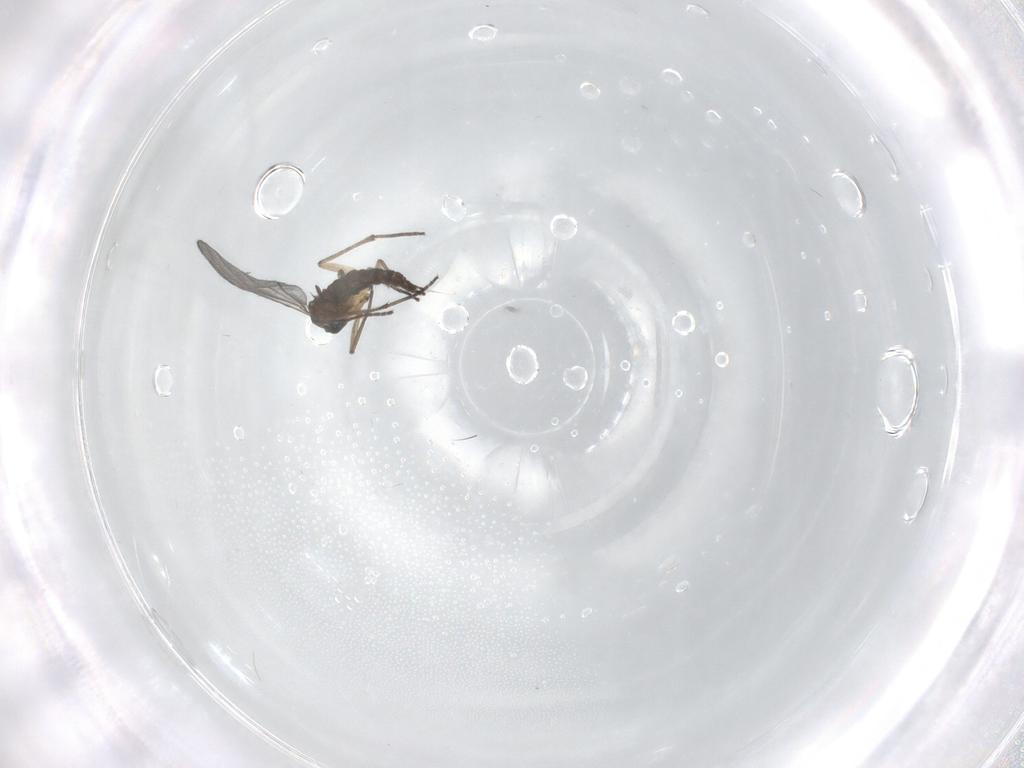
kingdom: Animalia
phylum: Arthropoda
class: Insecta
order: Diptera
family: Sciaridae
